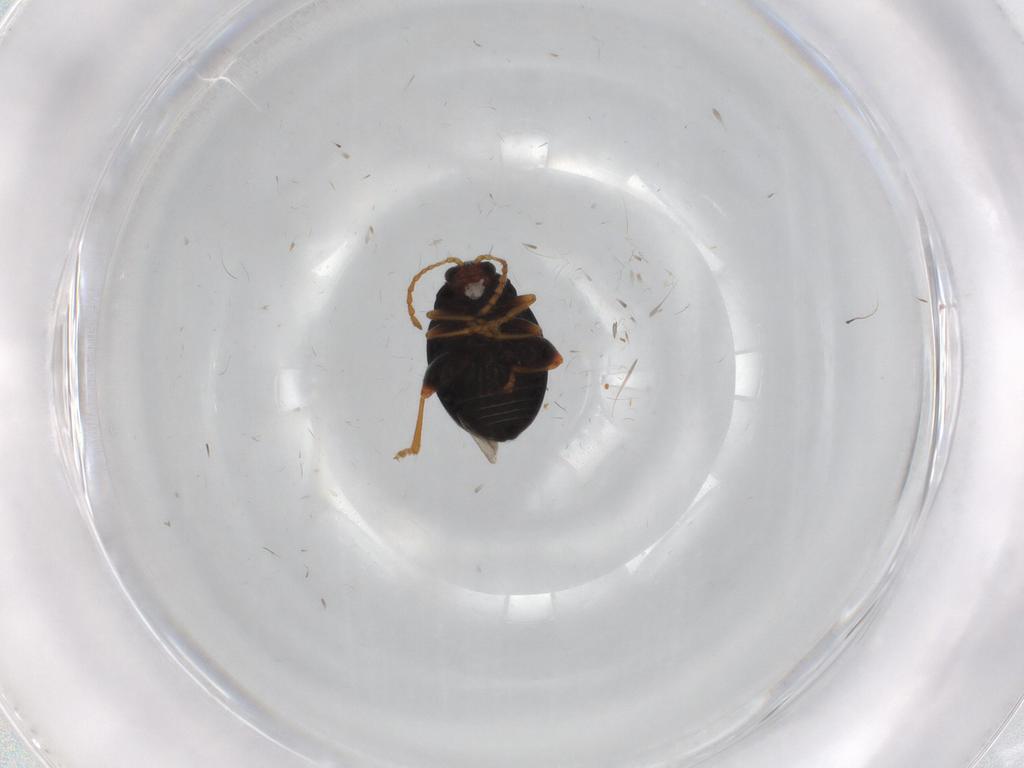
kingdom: Animalia
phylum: Arthropoda
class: Insecta
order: Coleoptera
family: Chrysomelidae
